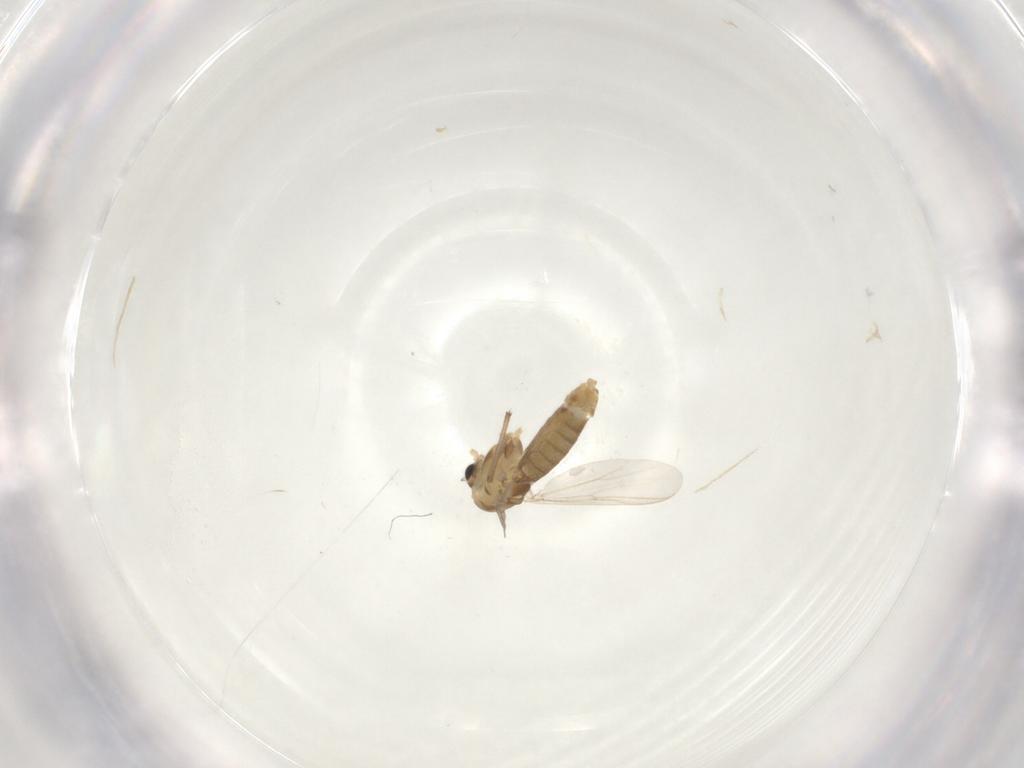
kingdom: Animalia
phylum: Arthropoda
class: Insecta
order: Diptera
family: Chironomidae
